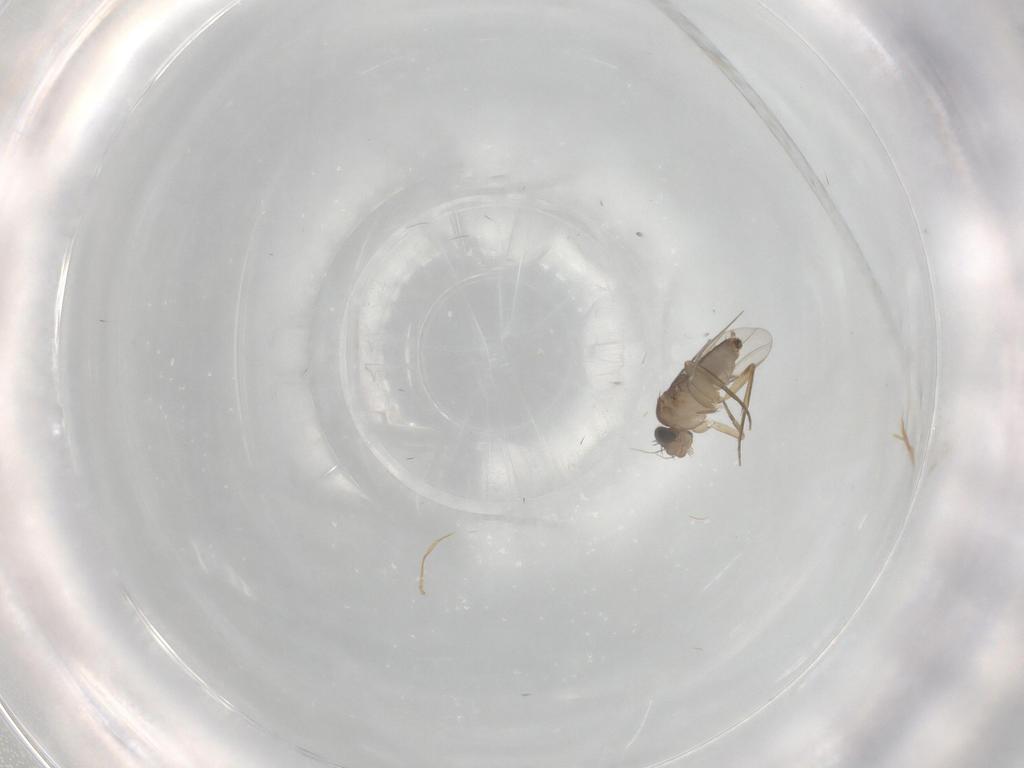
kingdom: Animalia
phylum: Arthropoda
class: Insecta
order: Diptera
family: Phoridae
